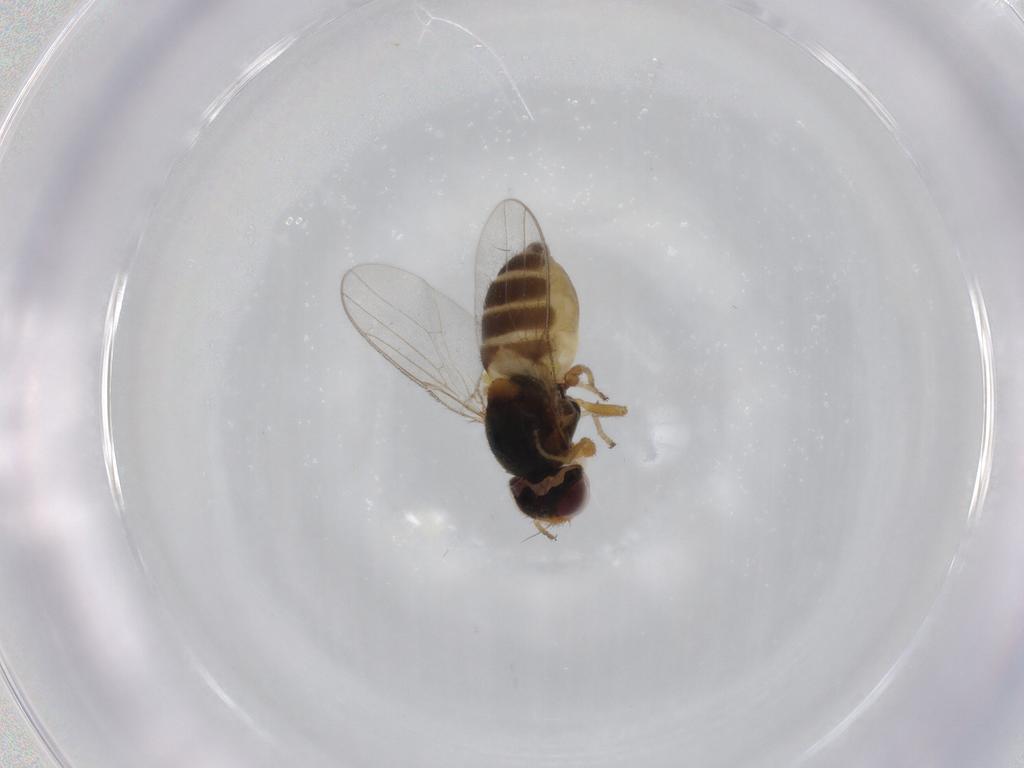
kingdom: Animalia
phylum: Arthropoda
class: Insecta
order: Diptera
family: Chloropidae
